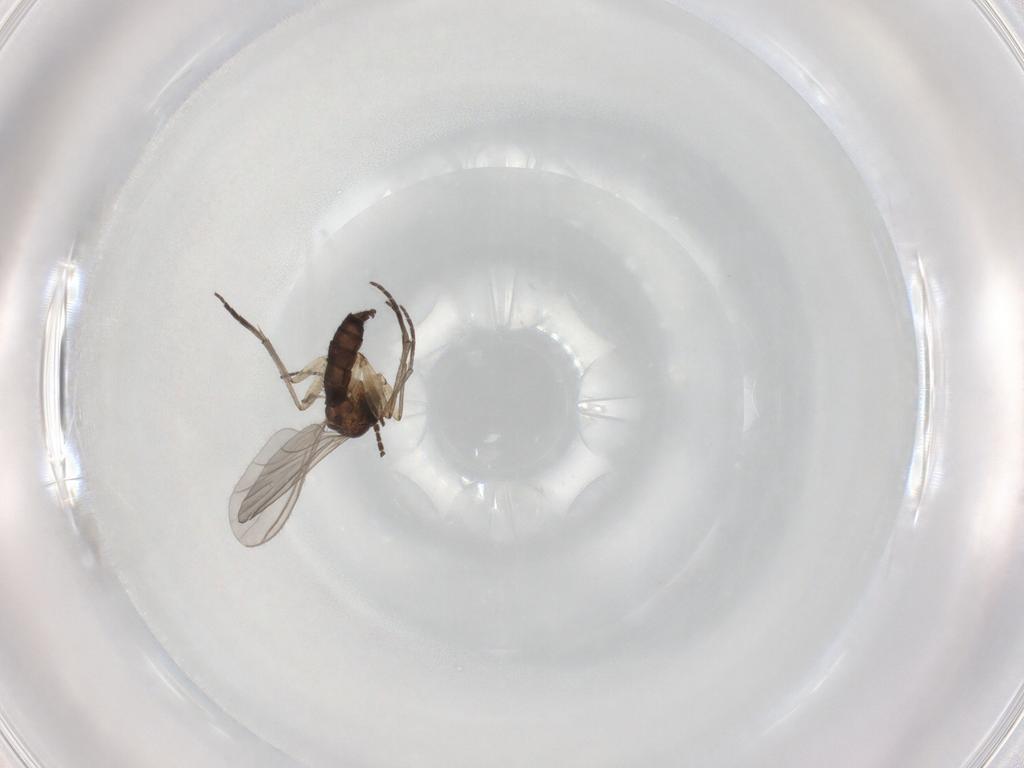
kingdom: Animalia
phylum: Arthropoda
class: Insecta
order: Diptera
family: Sciaridae
